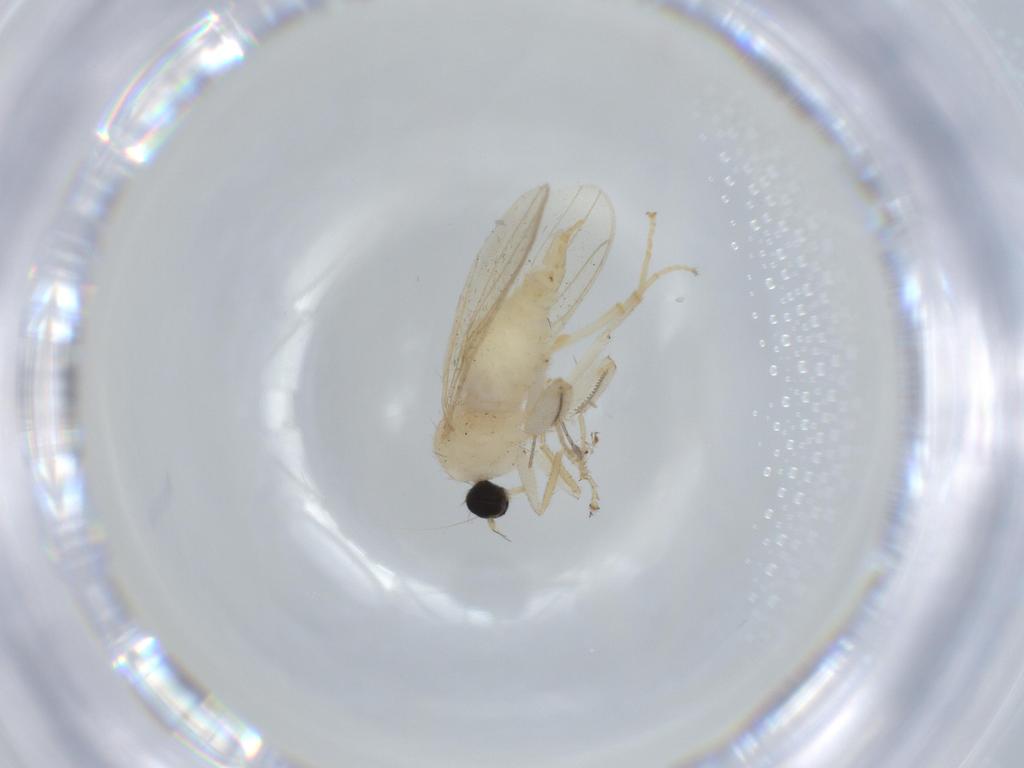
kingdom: Animalia
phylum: Arthropoda
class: Insecta
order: Diptera
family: Hybotidae
